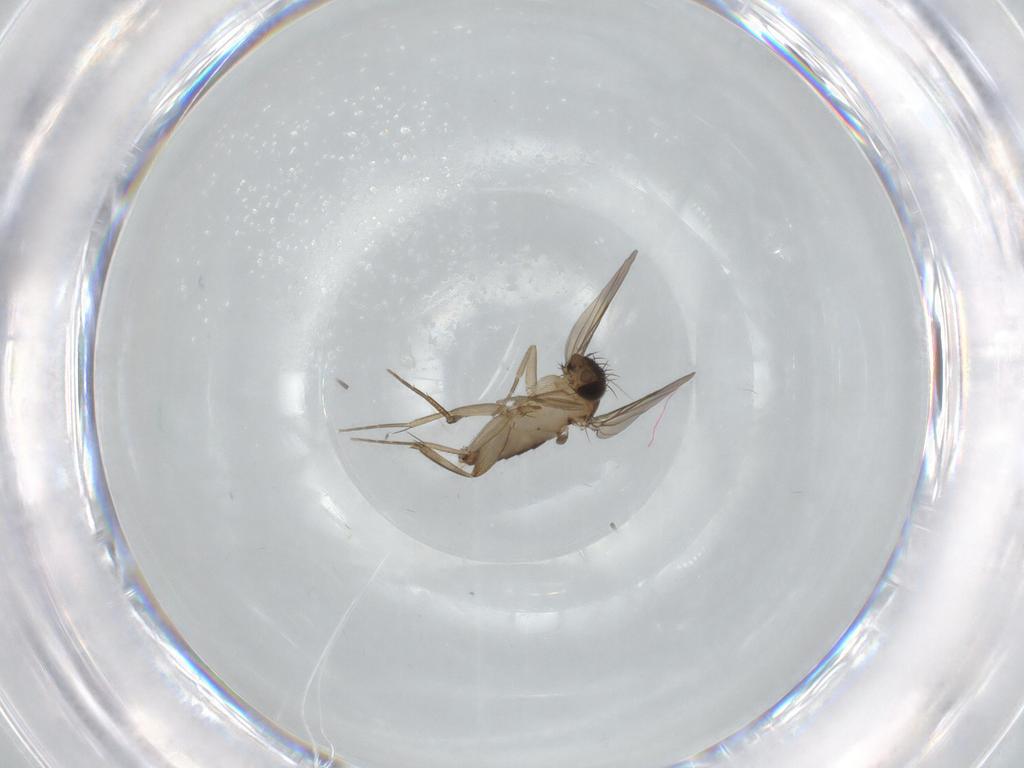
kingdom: Animalia
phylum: Arthropoda
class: Insecta
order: Diptera
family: Phoridae
